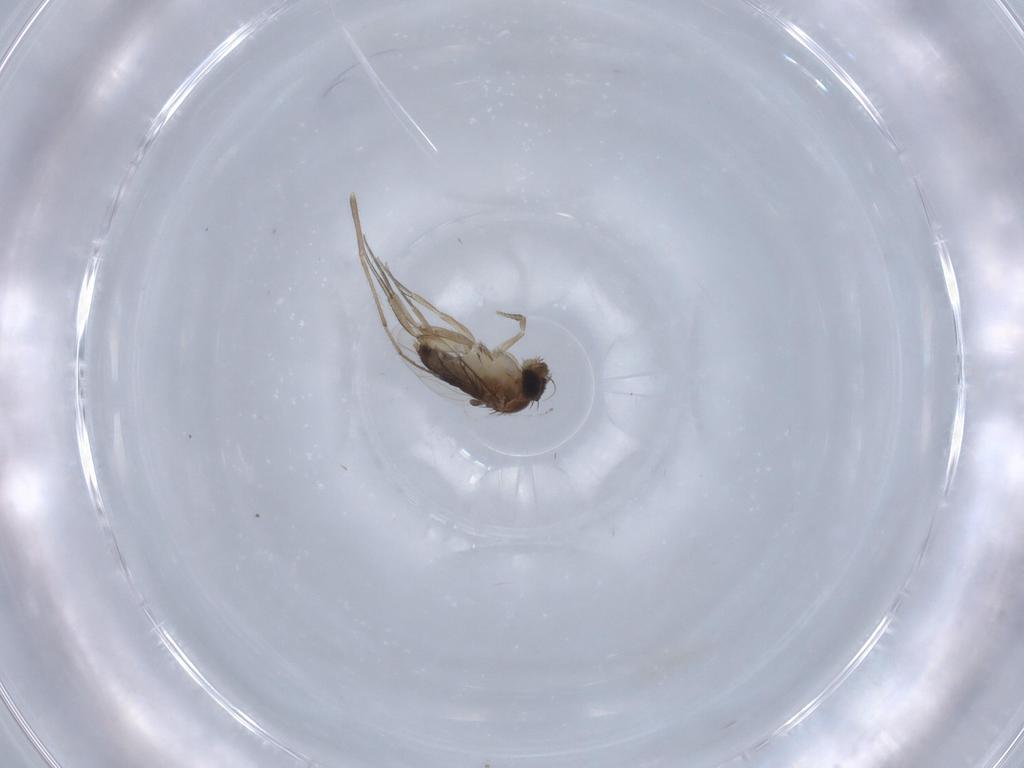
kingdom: Animalia
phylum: Arthropoda
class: Insecta
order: Diptera
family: Phoridae
